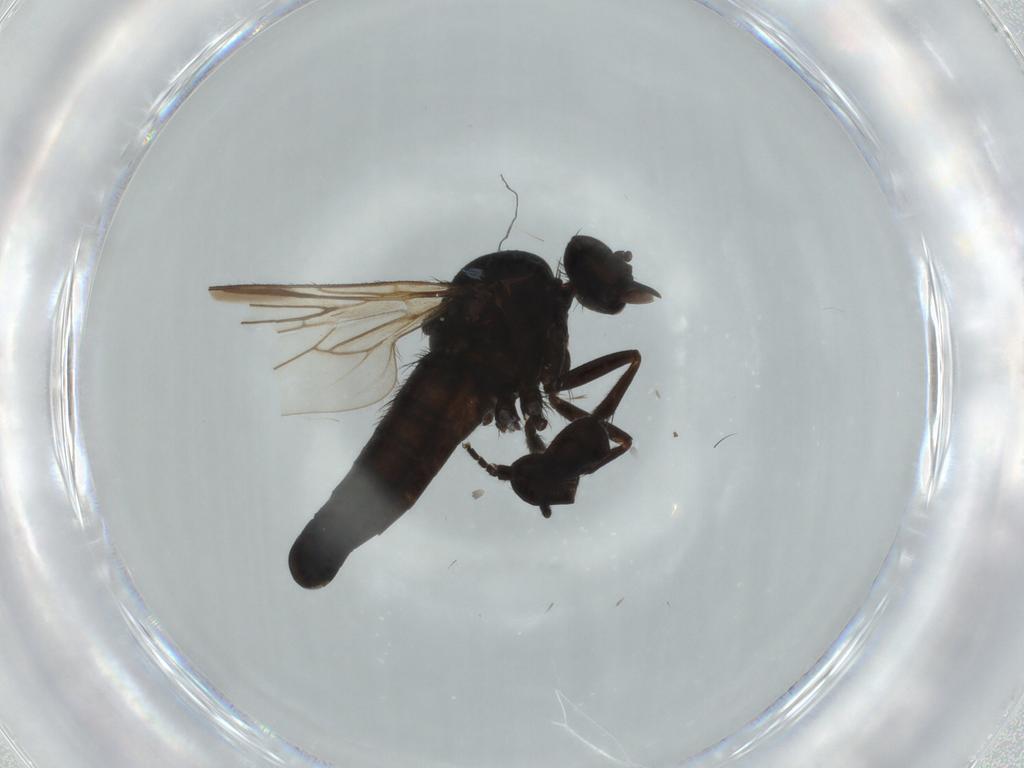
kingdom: Animalia
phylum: Arthropoda
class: Insecta
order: Diptera
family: Empididae
